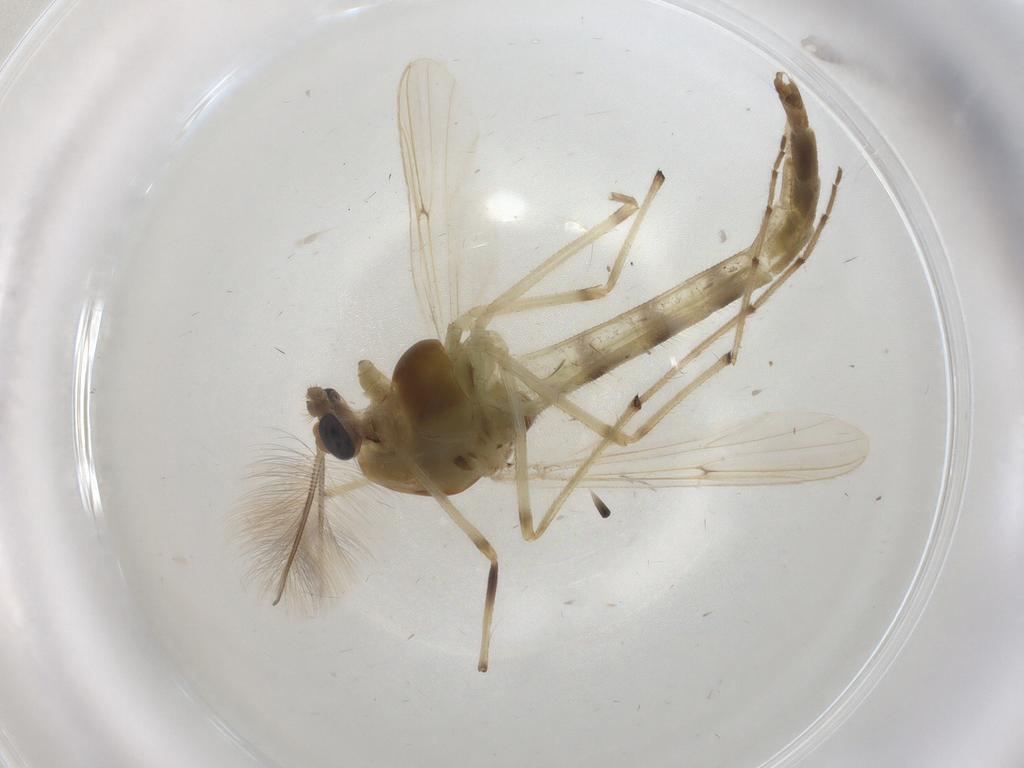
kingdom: Animalia
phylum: Arthropoda
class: Insecta
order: Diptera
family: Chironomidae
